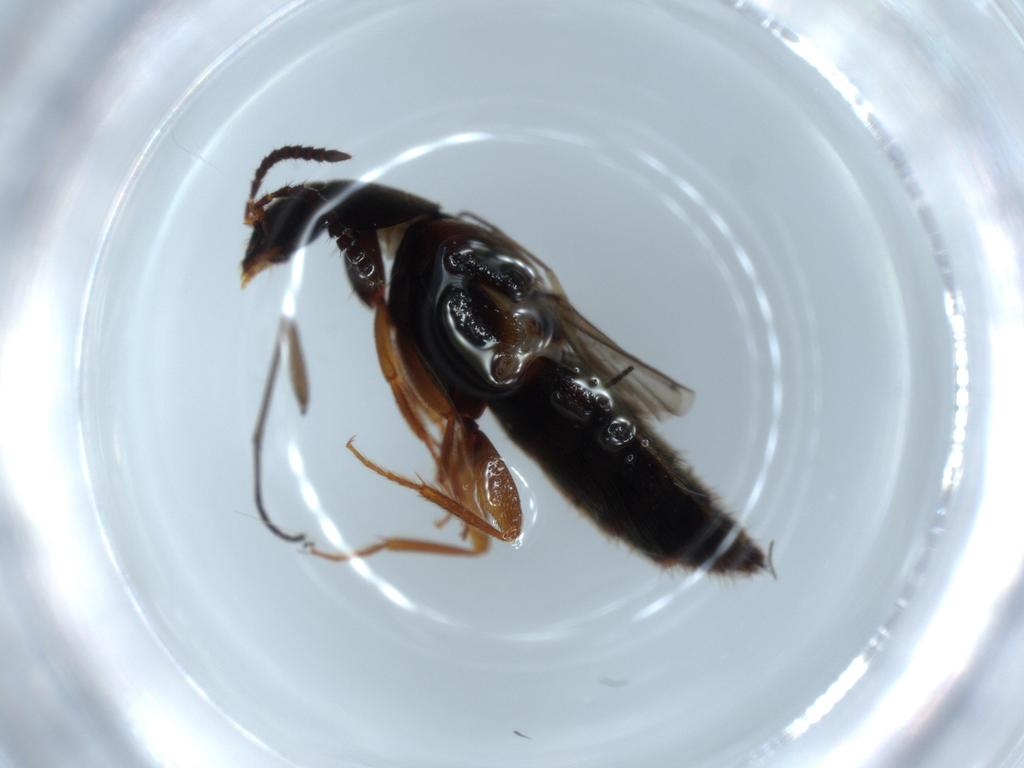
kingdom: Animalia
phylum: Arthropoda
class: Insecta
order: Coleoptera
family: Staphylinidae
